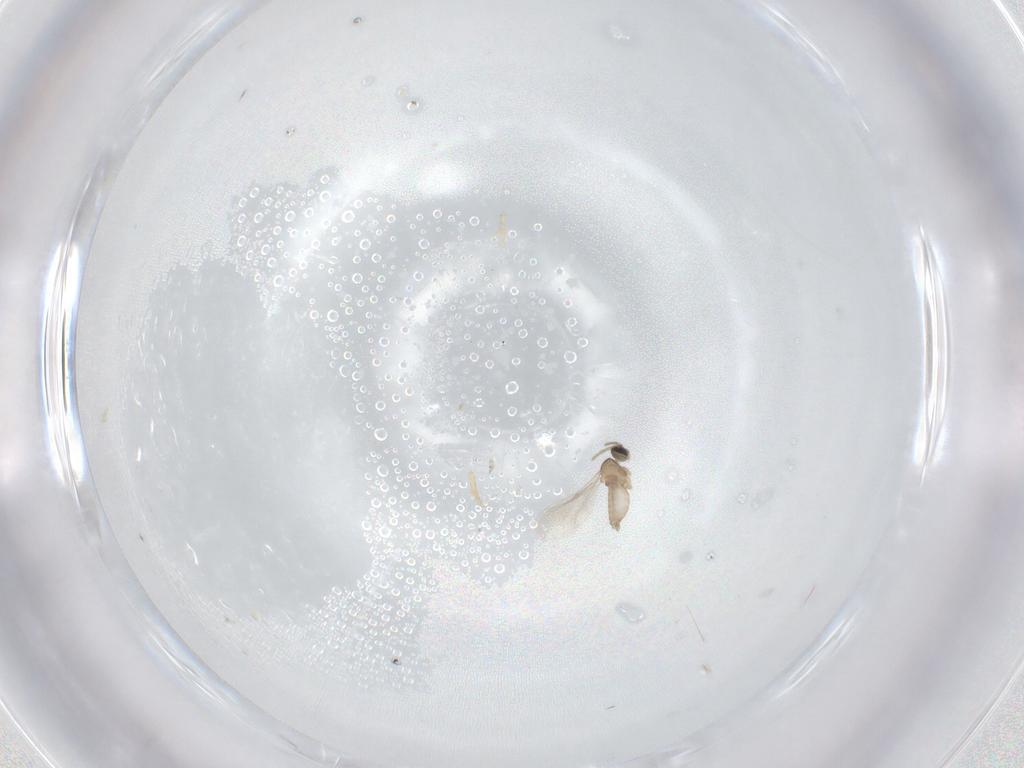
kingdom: Animalia
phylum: Arthropoda
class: Insecta
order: Diptera
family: Cecidomyiidae
